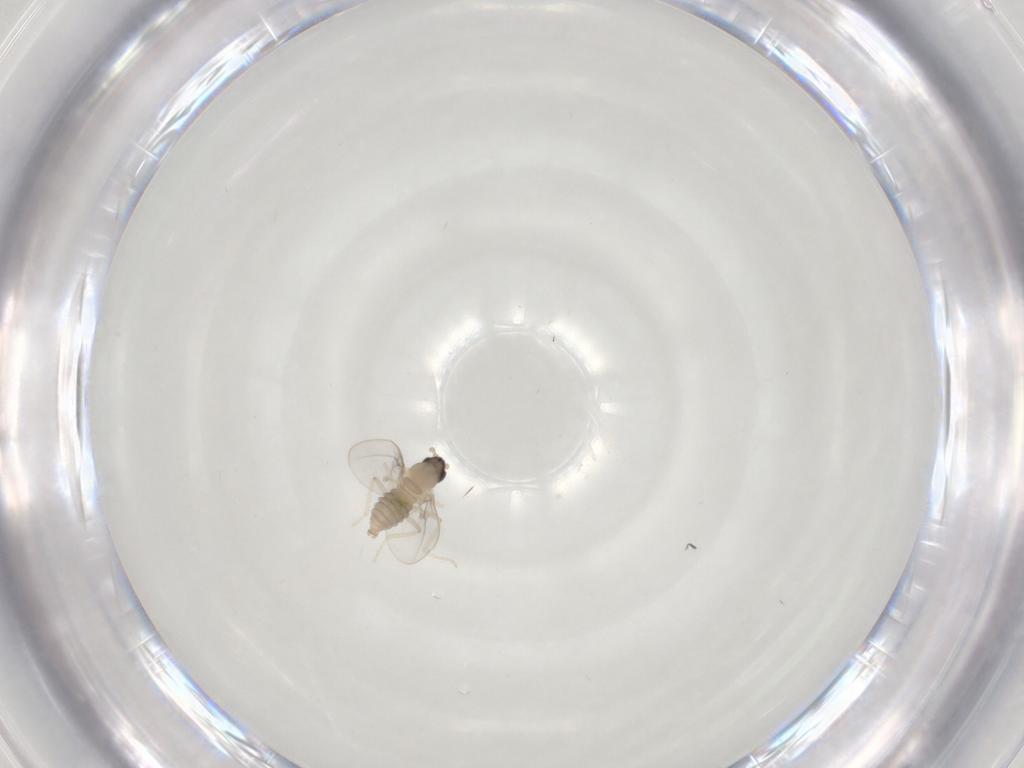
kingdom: Animalia
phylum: Arthropoda
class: Insecta
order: Diptera
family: Cecidomyiidae
